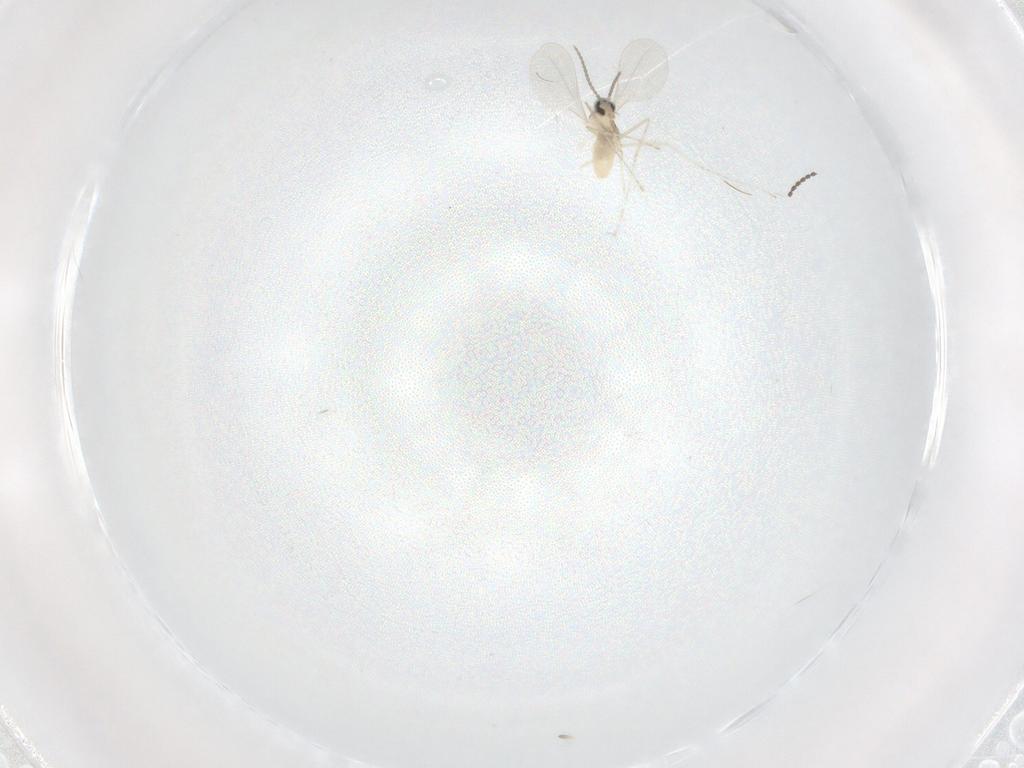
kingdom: Animalia
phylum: Arthropoda
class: Insecta
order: Diptera
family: Cecidomyiidae
